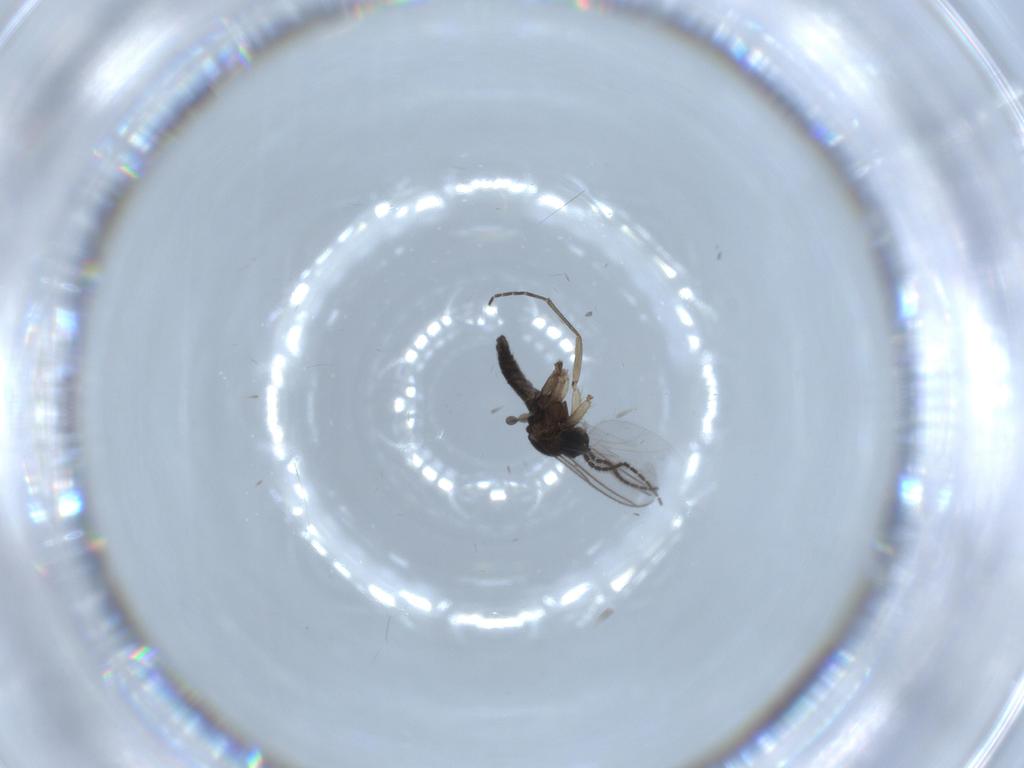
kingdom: Animalia
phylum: Arthropoda
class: Insecta
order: Diptera
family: Sciaridae
